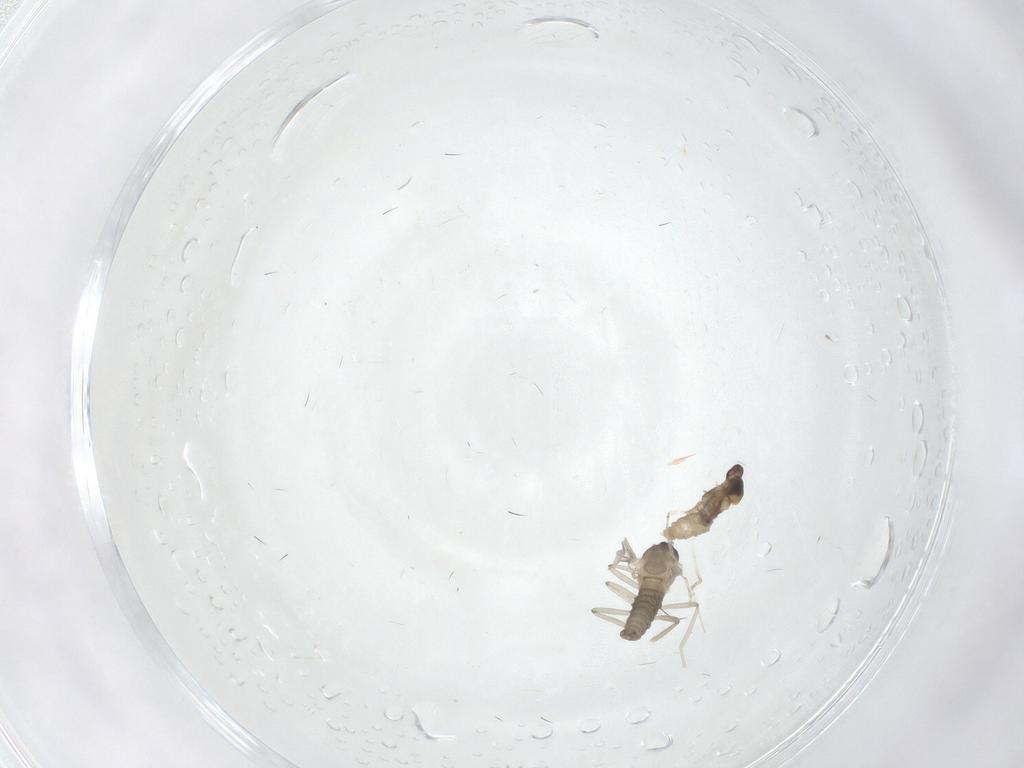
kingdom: Animalia
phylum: Arthropoda
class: Insecta
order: Diptera
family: Cecidomyiidae
